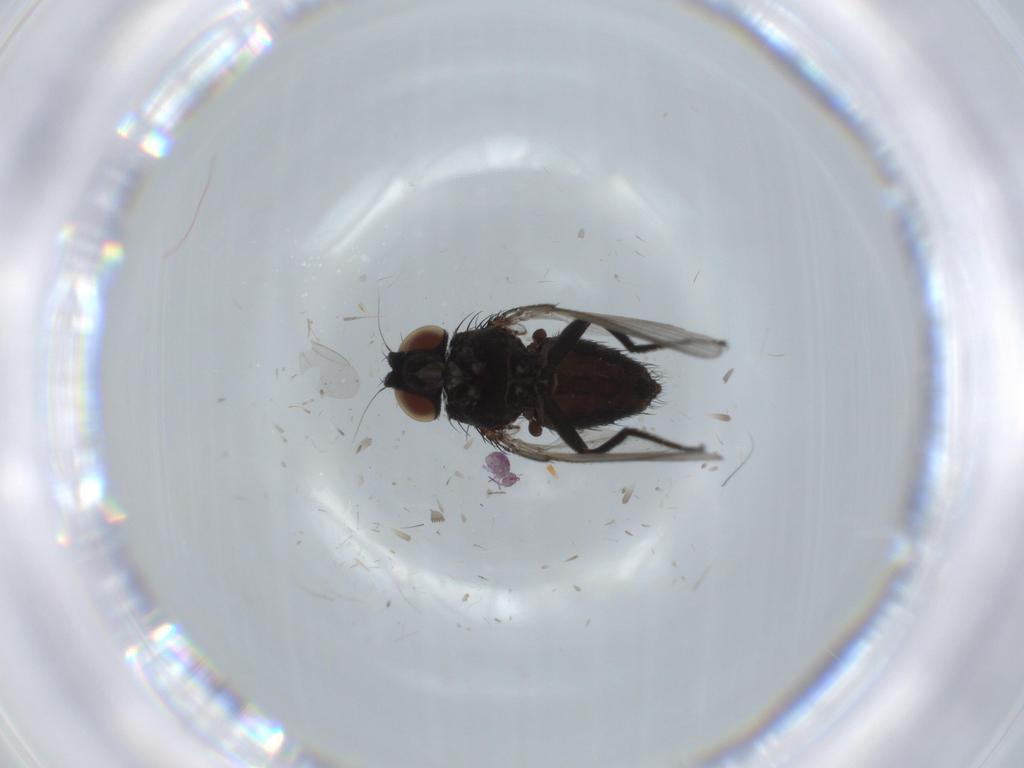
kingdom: Animalia
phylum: Arthropoda
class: Insecta
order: Diptera
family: Milichiidae
